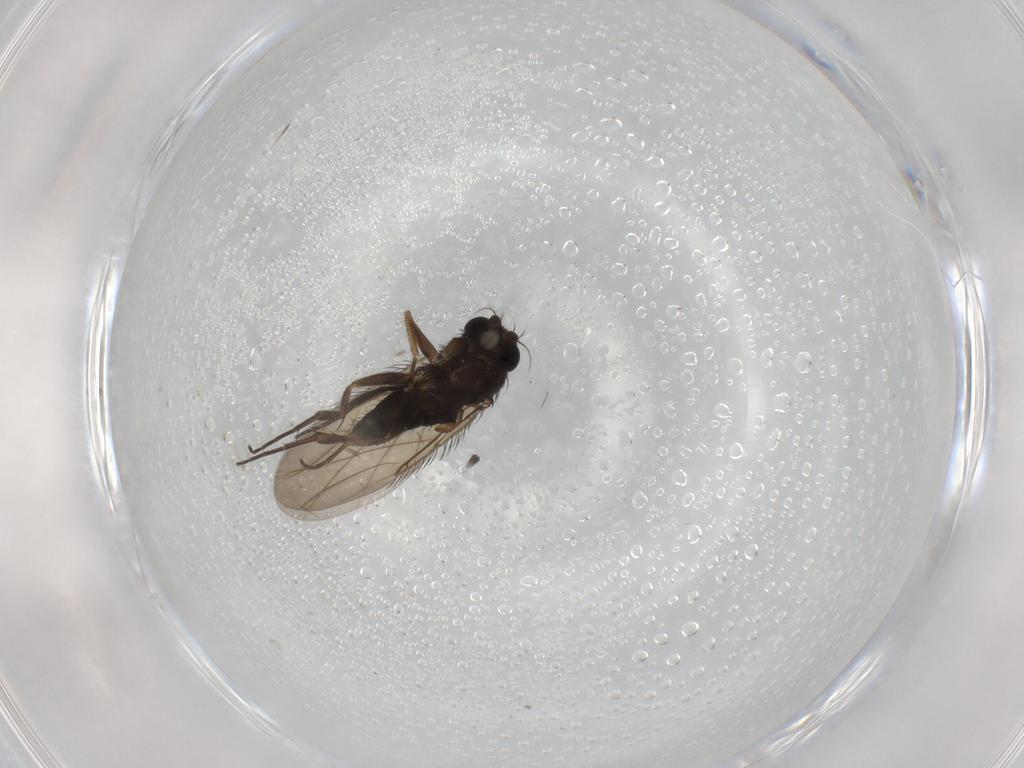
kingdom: Animalia
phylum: Arthropoda
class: Insecta
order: Diptera
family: Phoridae
